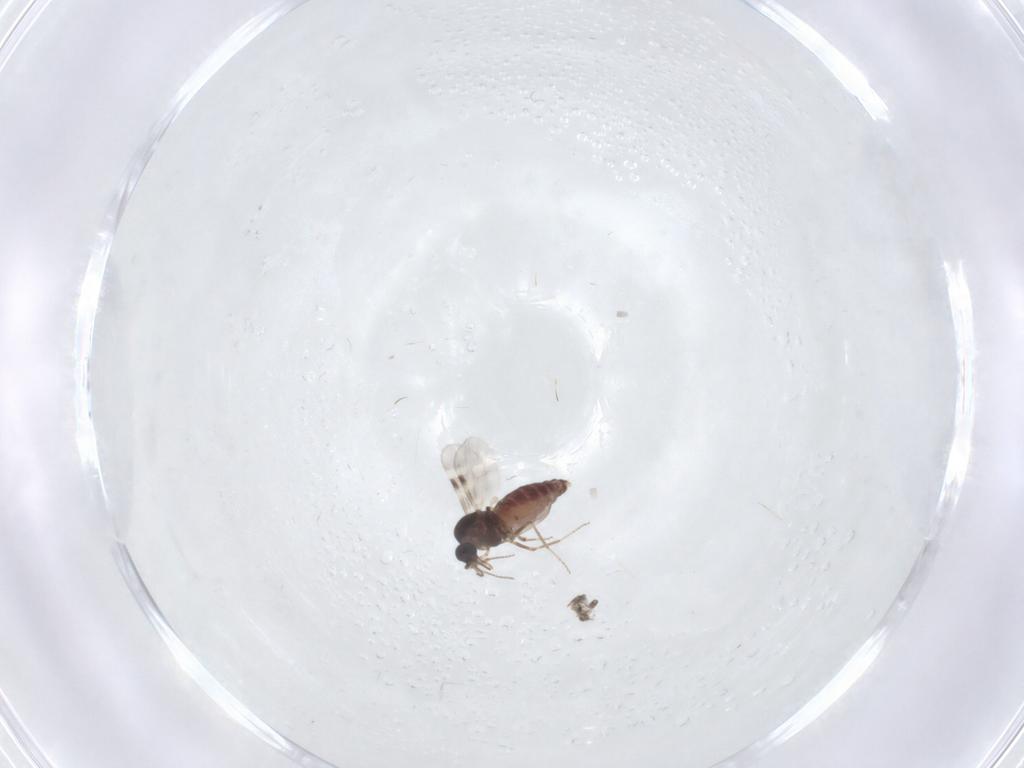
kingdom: Animalia
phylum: Arthropoda
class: Insecta
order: Diptera
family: Cecidomyiidae
